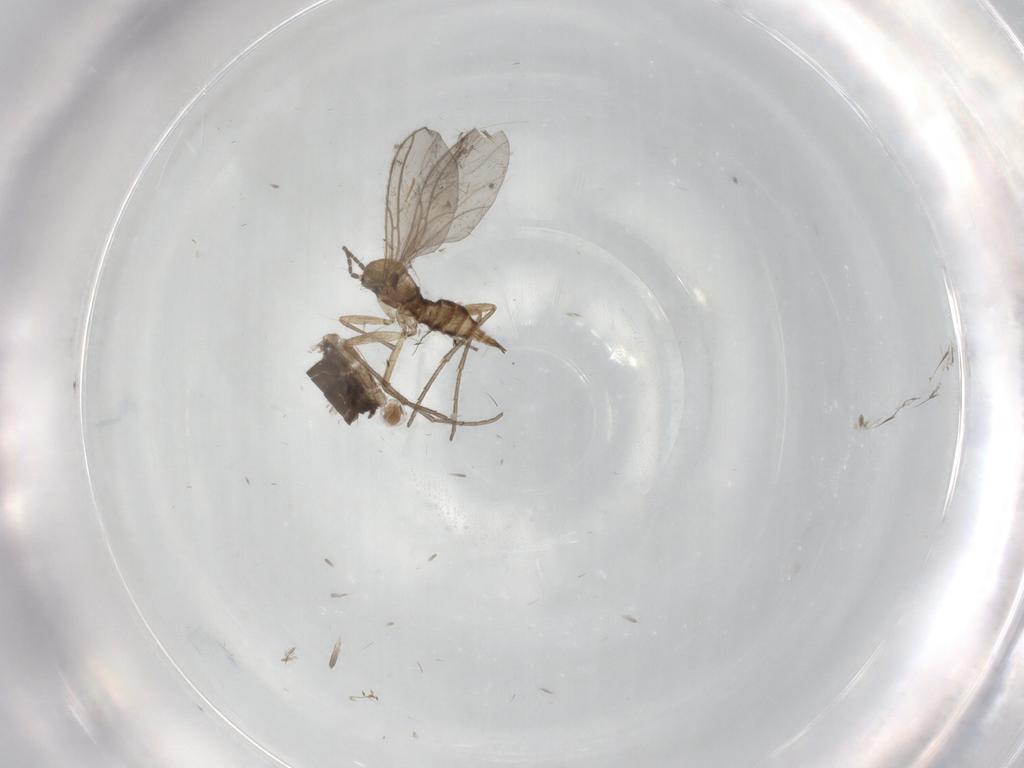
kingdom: Animalia
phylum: Arthropoda
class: Insecta
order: Diptera
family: Sciaridae
